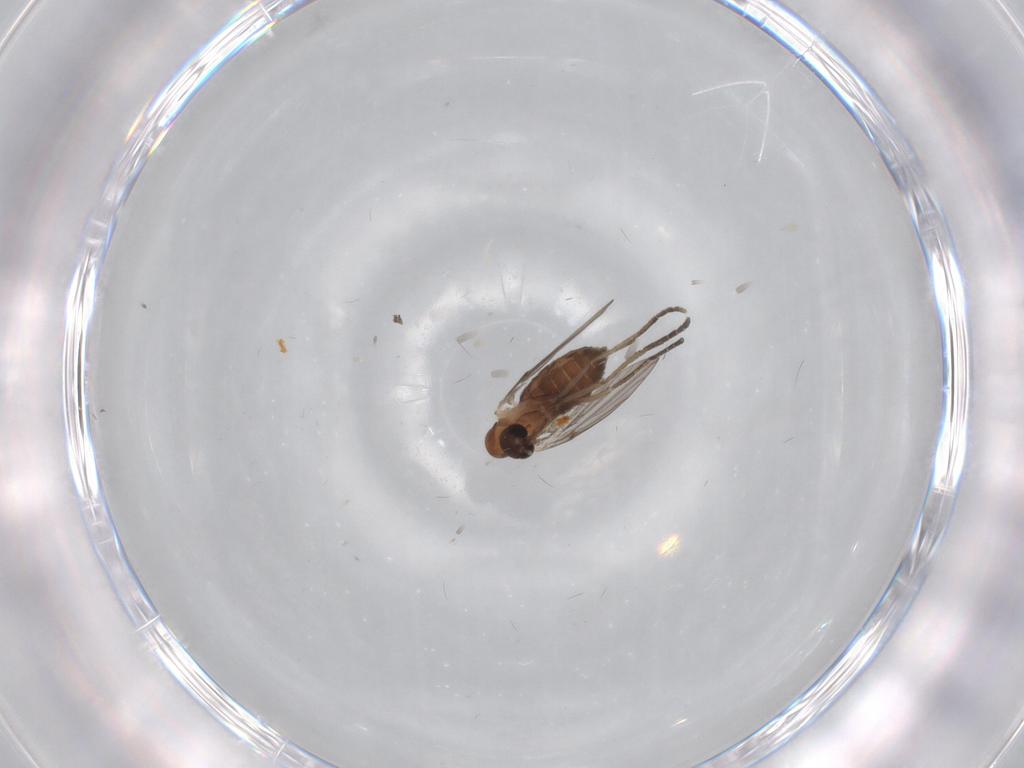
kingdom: Animalia
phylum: Arthropoda
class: Insecta
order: Diptera
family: Psychodidae
